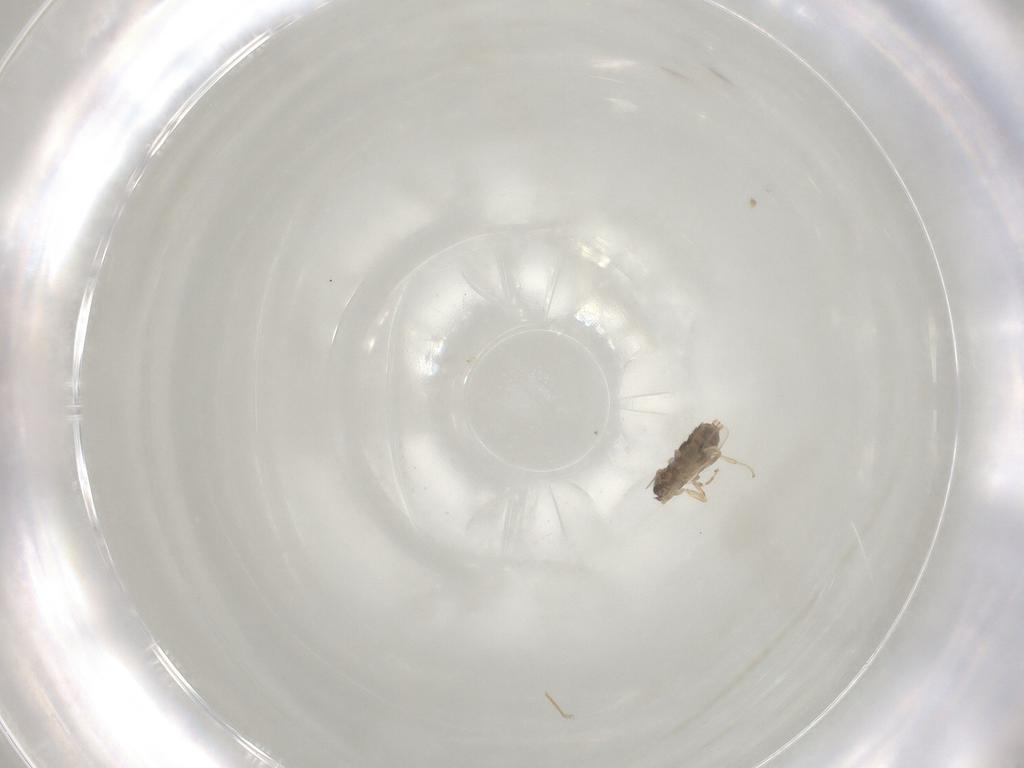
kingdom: Animalia
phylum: Arthropoda
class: Insecta
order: Diptera
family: Scatopsidae
